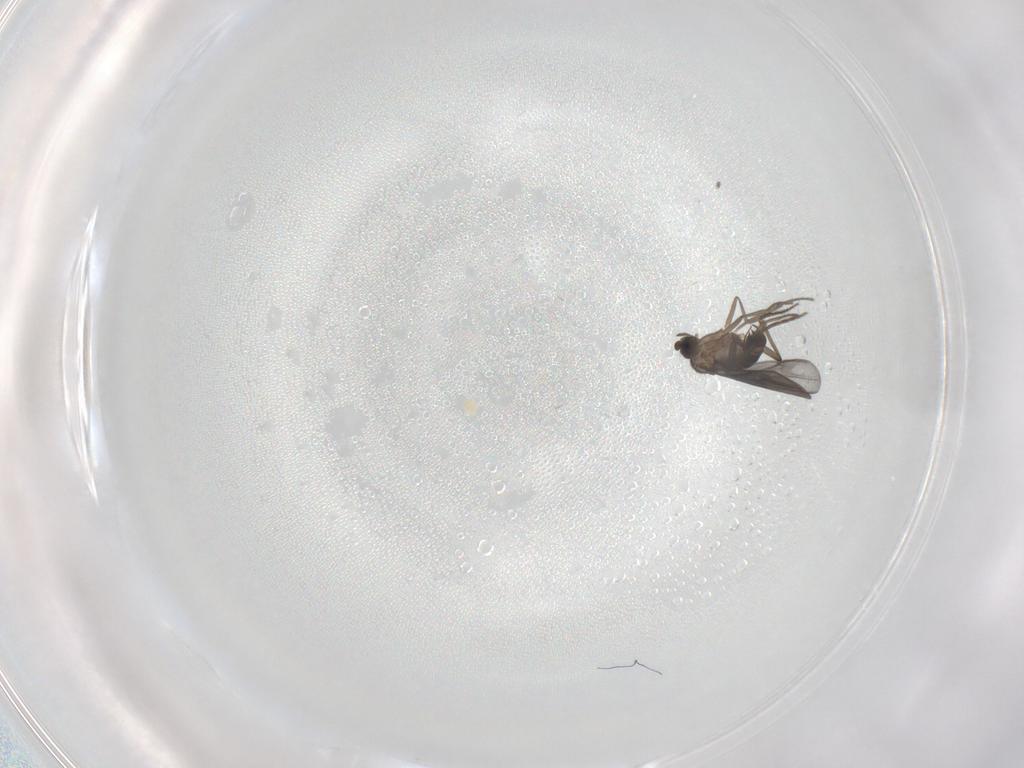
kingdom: Animalia
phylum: Arthropoda
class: Insecta
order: Diptera
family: Phoridae
